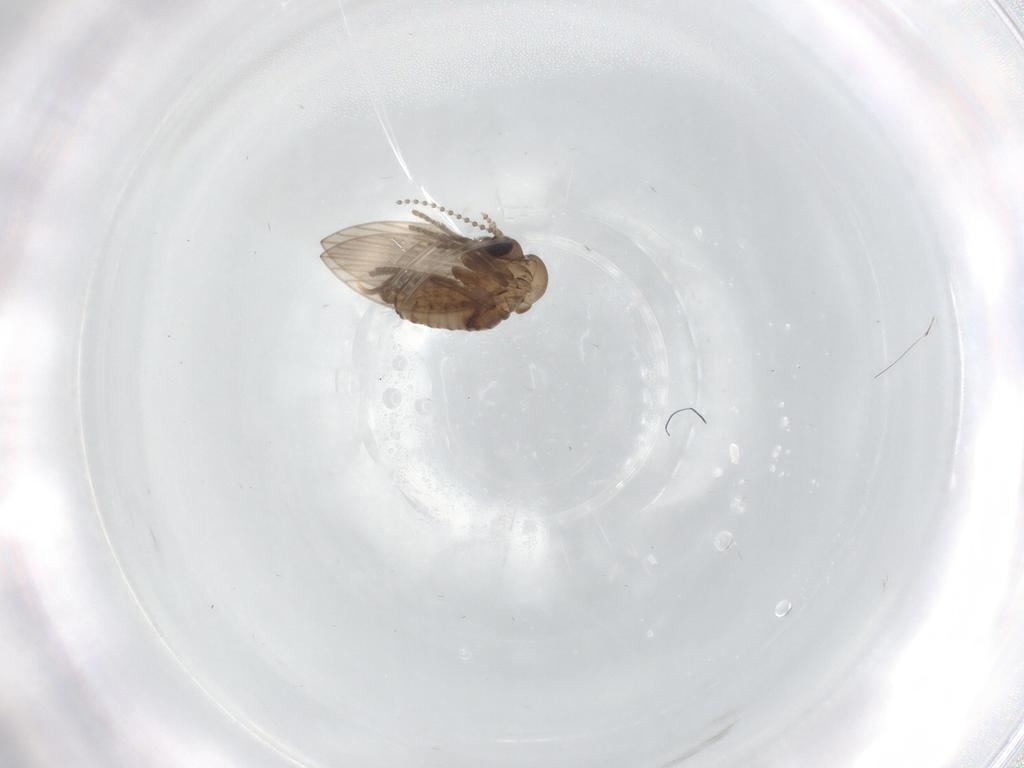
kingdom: Animalia
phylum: Arthropoda
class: Insecta
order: Diptera
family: Psychodidae
